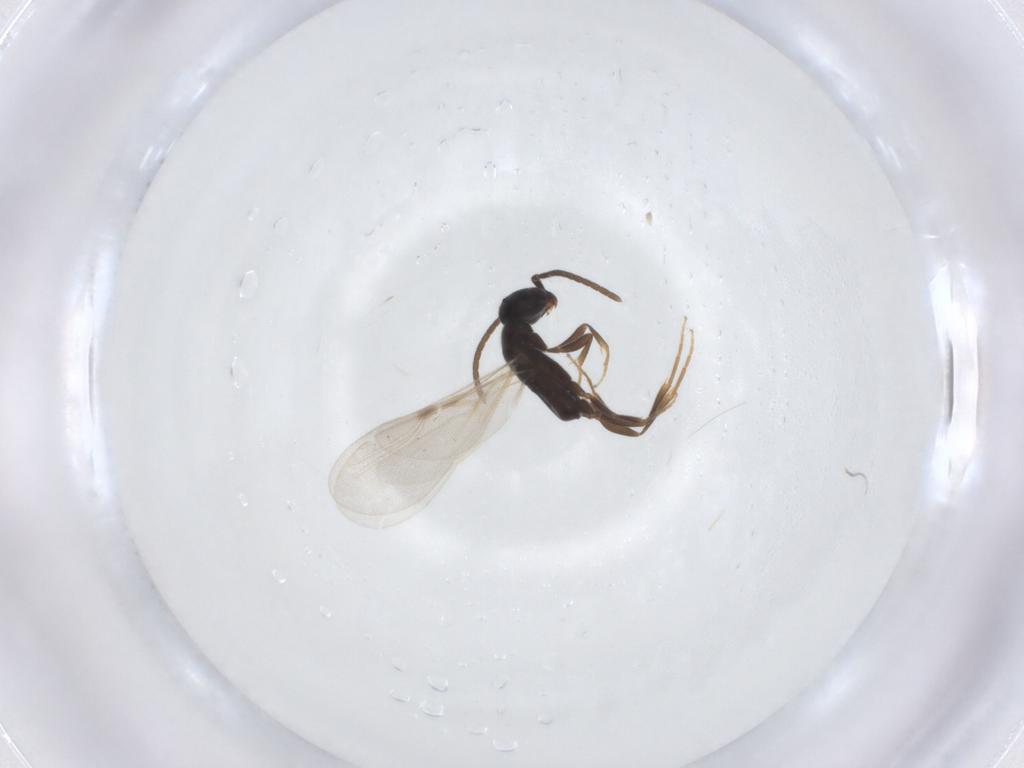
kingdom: Animalia
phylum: Arthropoda
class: Insecta
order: Hymenoptera
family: Bethylidae
